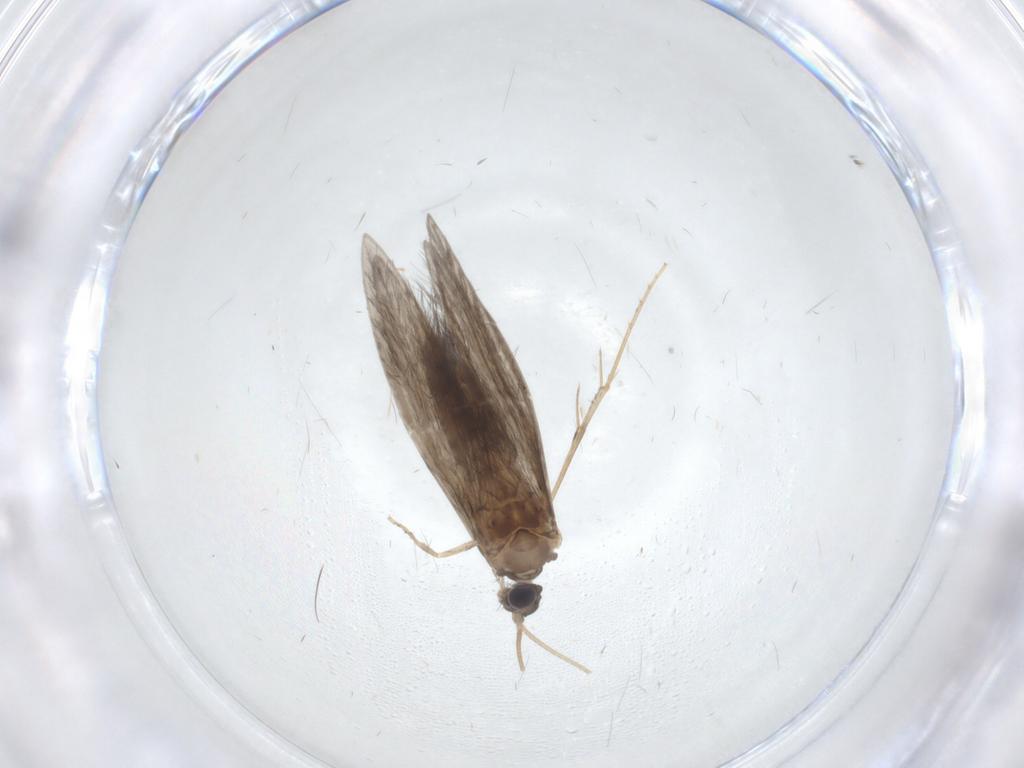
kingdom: Animalia
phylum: Arthropoda
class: Insecta
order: Trichoptera
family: Hydroptilidae
